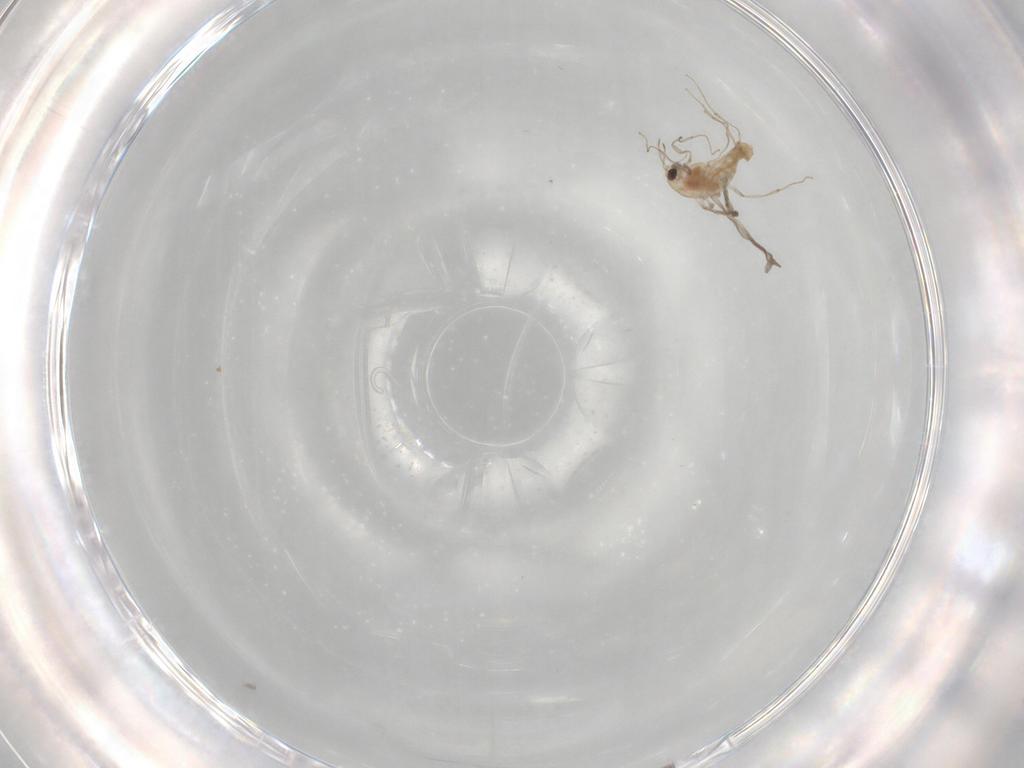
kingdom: Animalia
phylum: Arthropoda
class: Insecta
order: Diptera
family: Chironomidae
